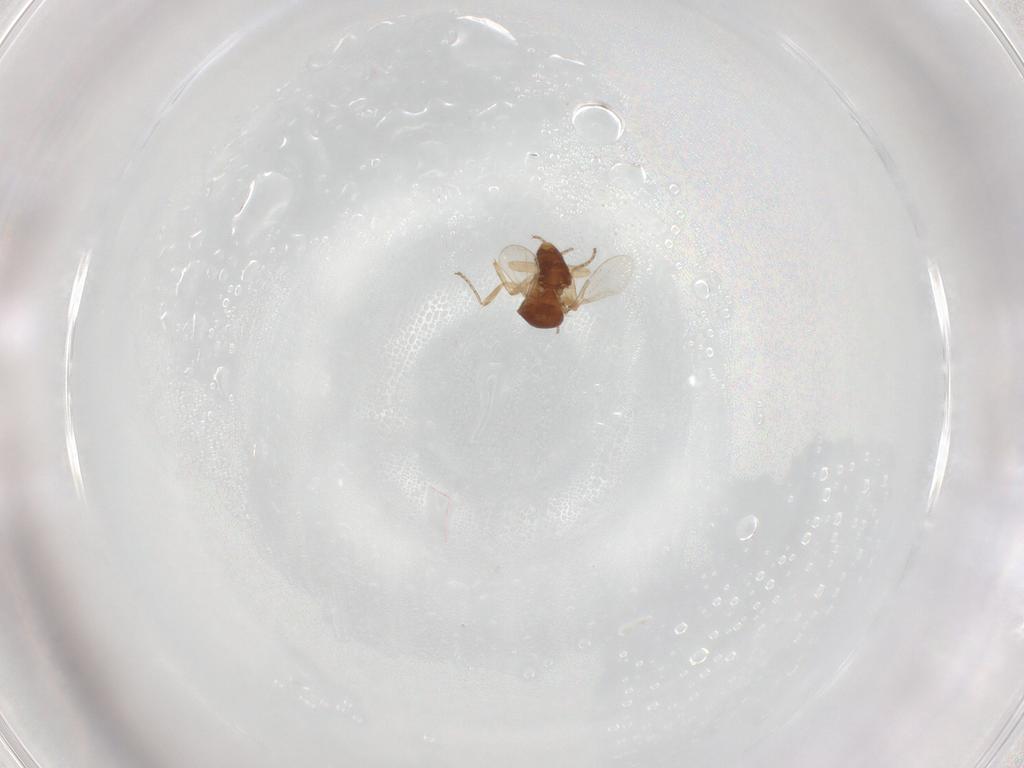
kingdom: Animalia
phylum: Arthropoda
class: Insecta
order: Diptera
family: Ceratopogonidae
